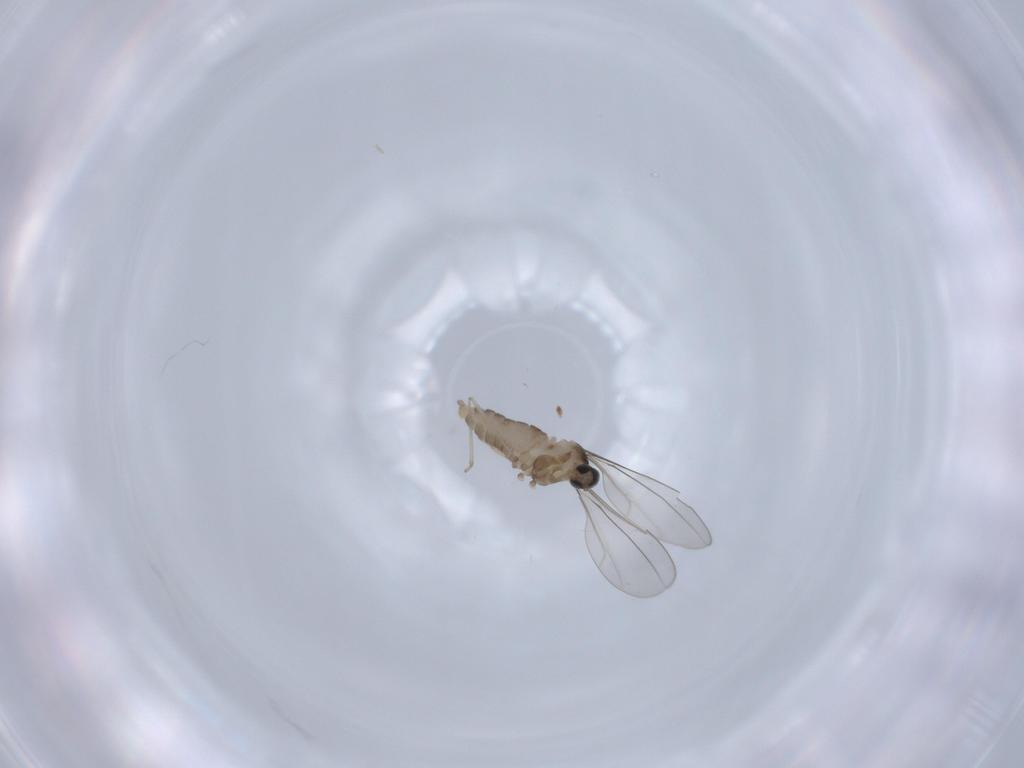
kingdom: Animalia
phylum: Arthropoda
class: Insecta
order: Diptera
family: Cecidomyiidae
